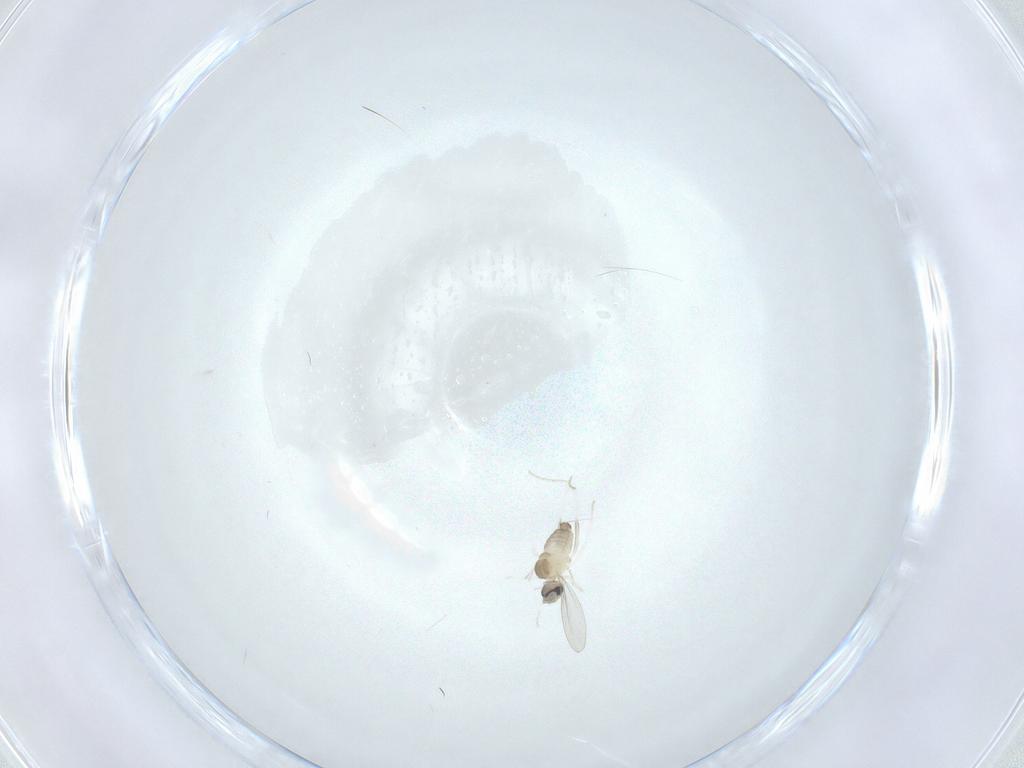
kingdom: Animalia
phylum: Arthropoda
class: Insecta
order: Diptera
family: Cecidomyiidae
